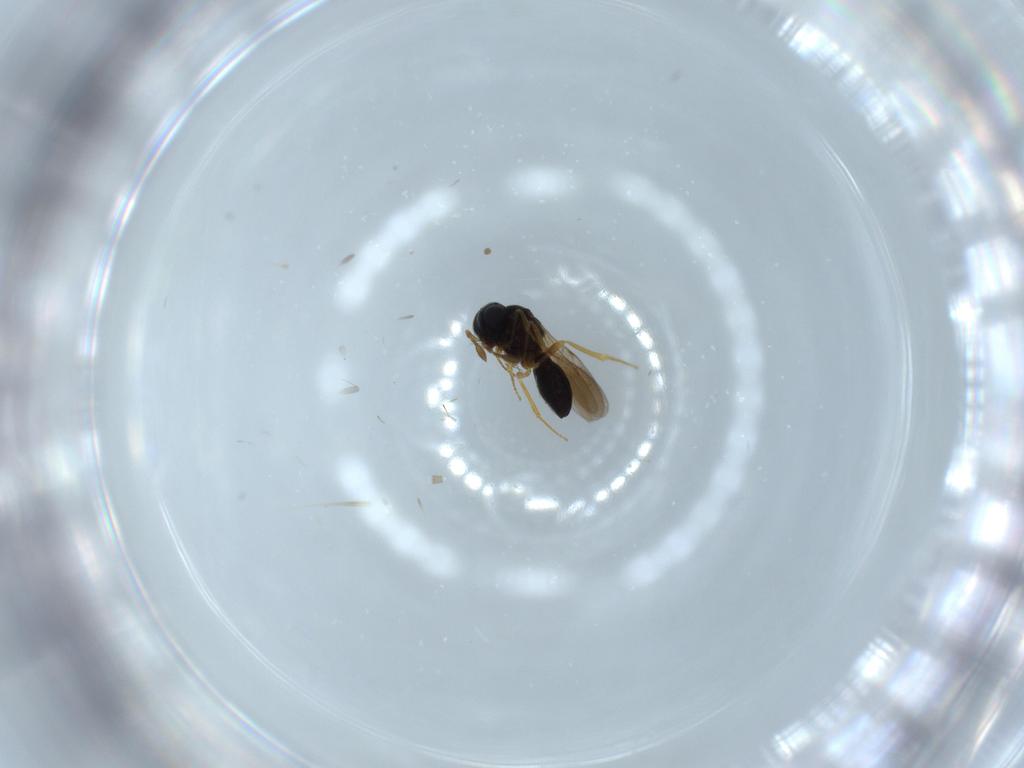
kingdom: Animalia
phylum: Arthropoda
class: Insecta
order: Hymenoptera
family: Scelionidae
